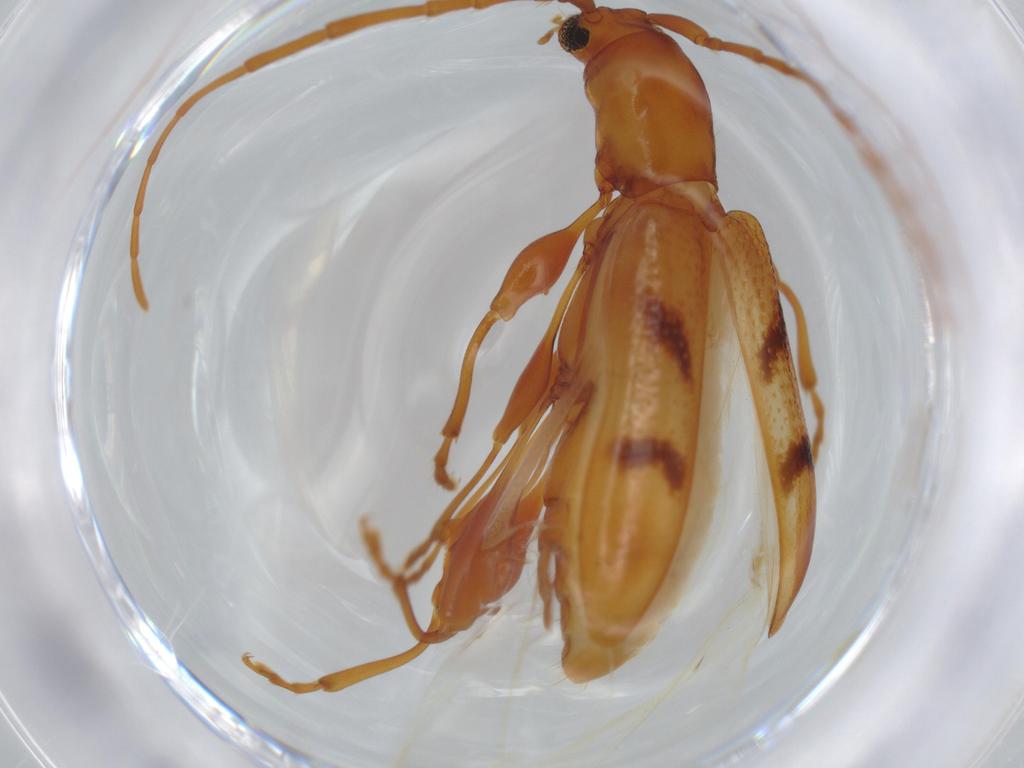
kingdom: Animalia
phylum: Arthropoda
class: Insecta
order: Coleoptera
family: Cerambycidae
